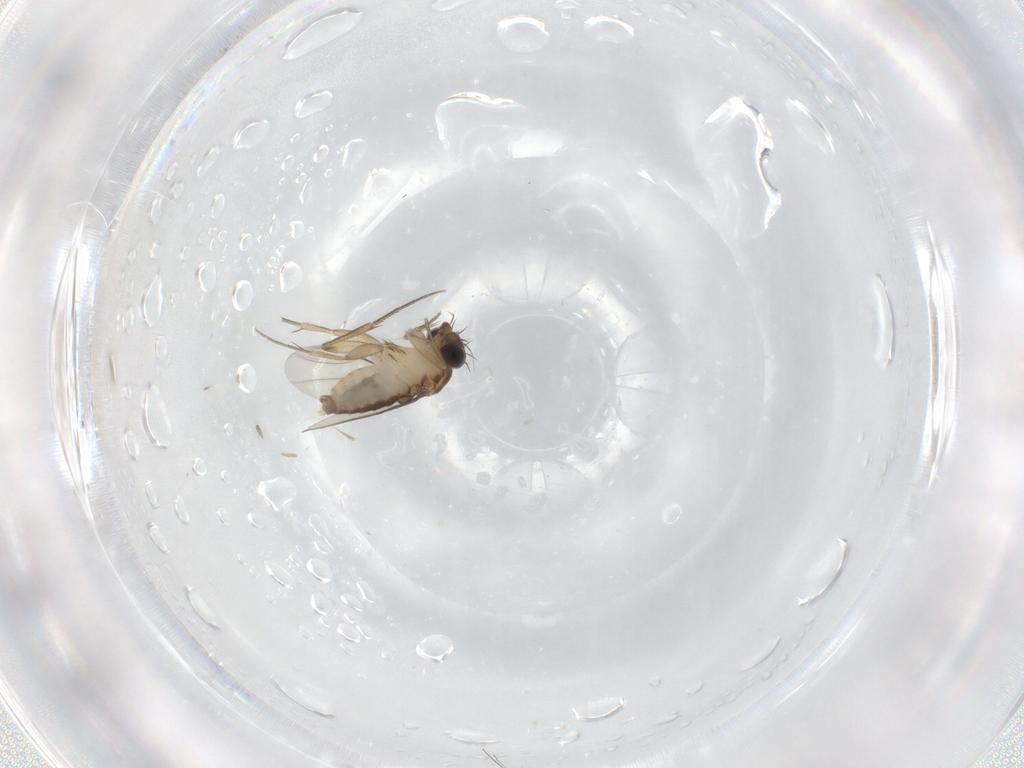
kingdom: Animalia
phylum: Arthropoda
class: Insecta
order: Diptera
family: Phoridae
